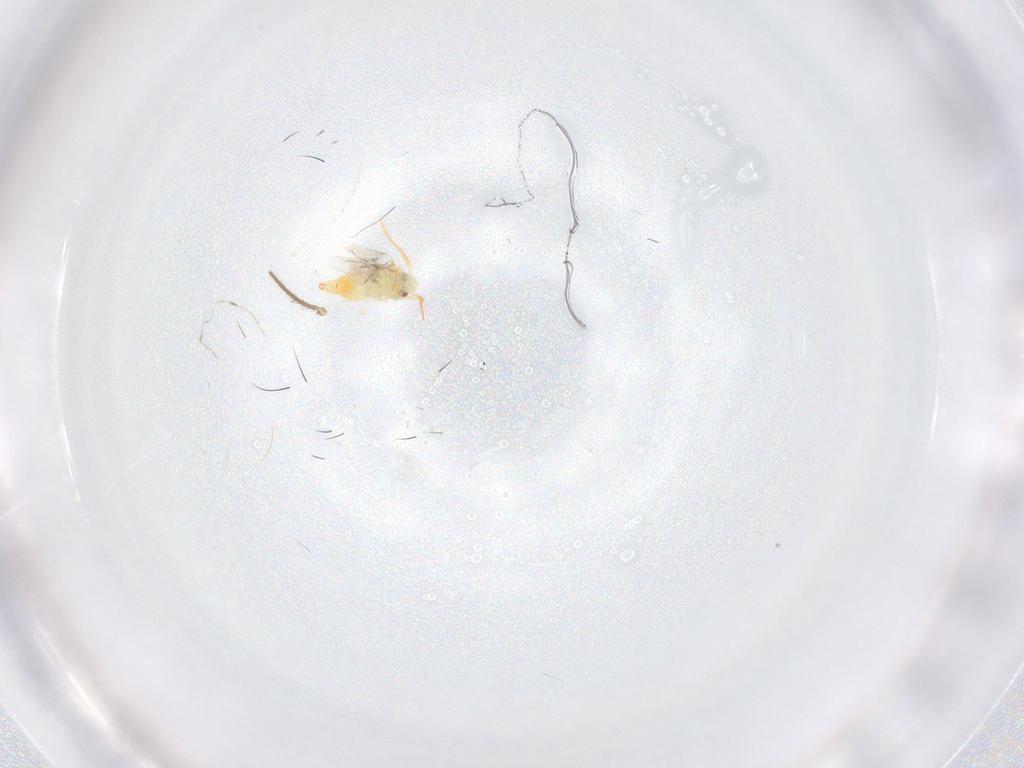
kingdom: Animalia
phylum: Arthropoda
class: Insecta
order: Hemiptera
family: Aleyrodidae
